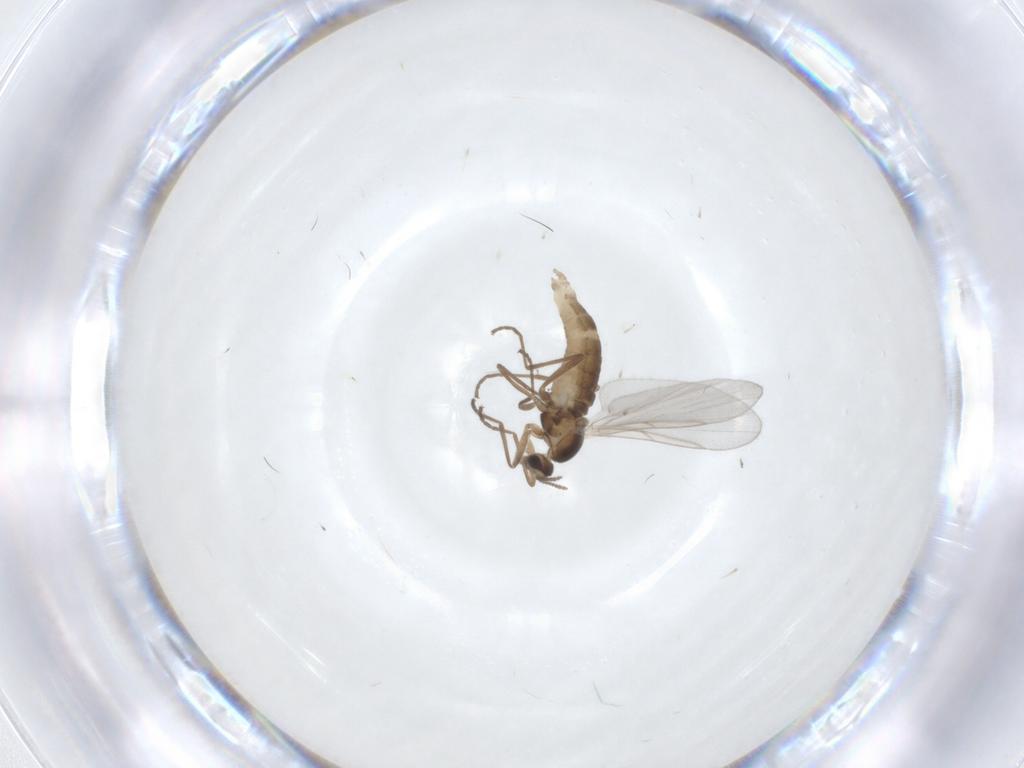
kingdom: Animalia
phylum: Arthropoda
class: Insecta
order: Diptera
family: Cecidomyiidae
